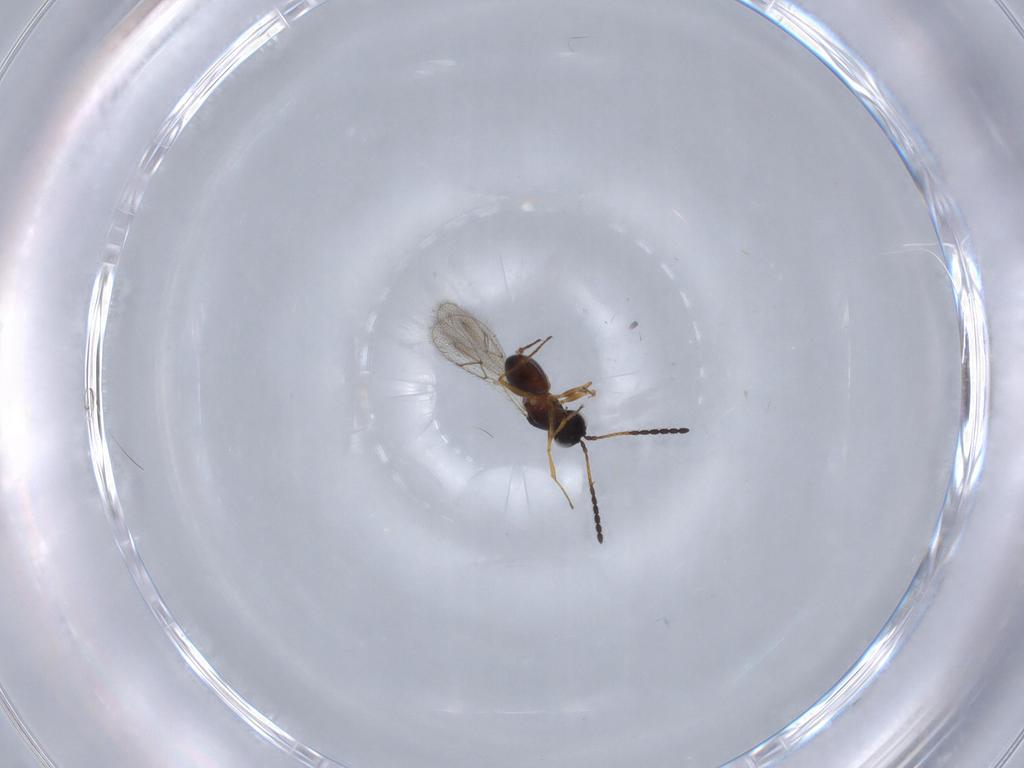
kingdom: Animalia
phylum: Arthropoda
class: Insecta
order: Hymenoptera
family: Figitidae
